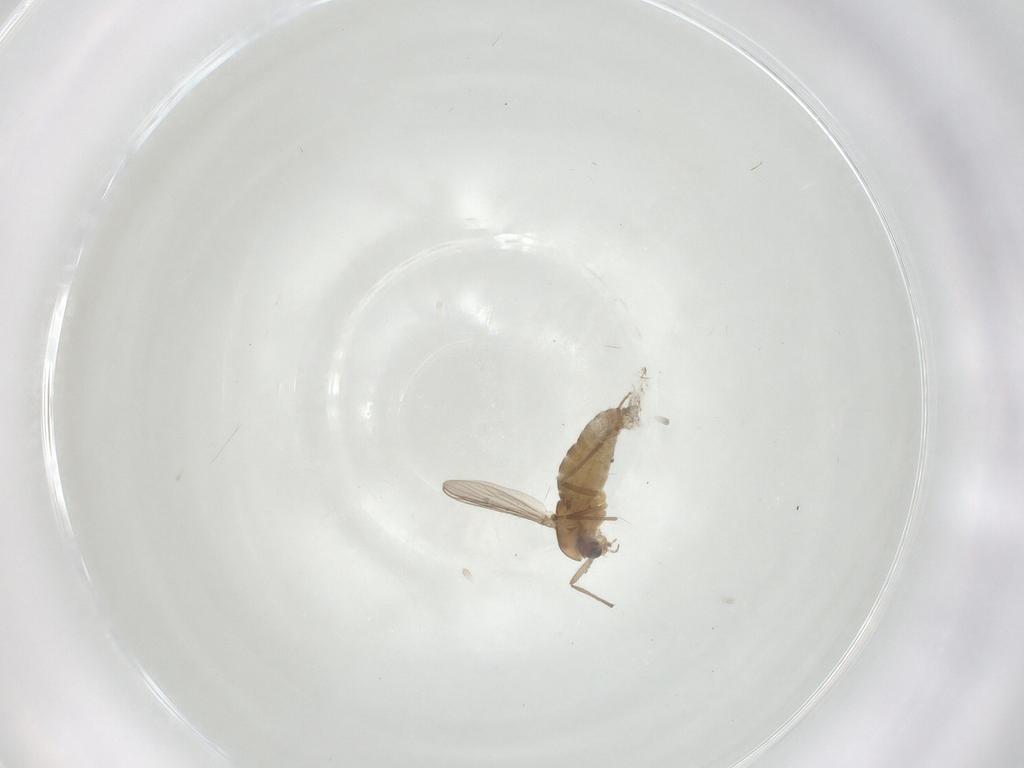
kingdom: Animalia
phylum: Arthropoda
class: Insecta
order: Diptera
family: Chironomidae
